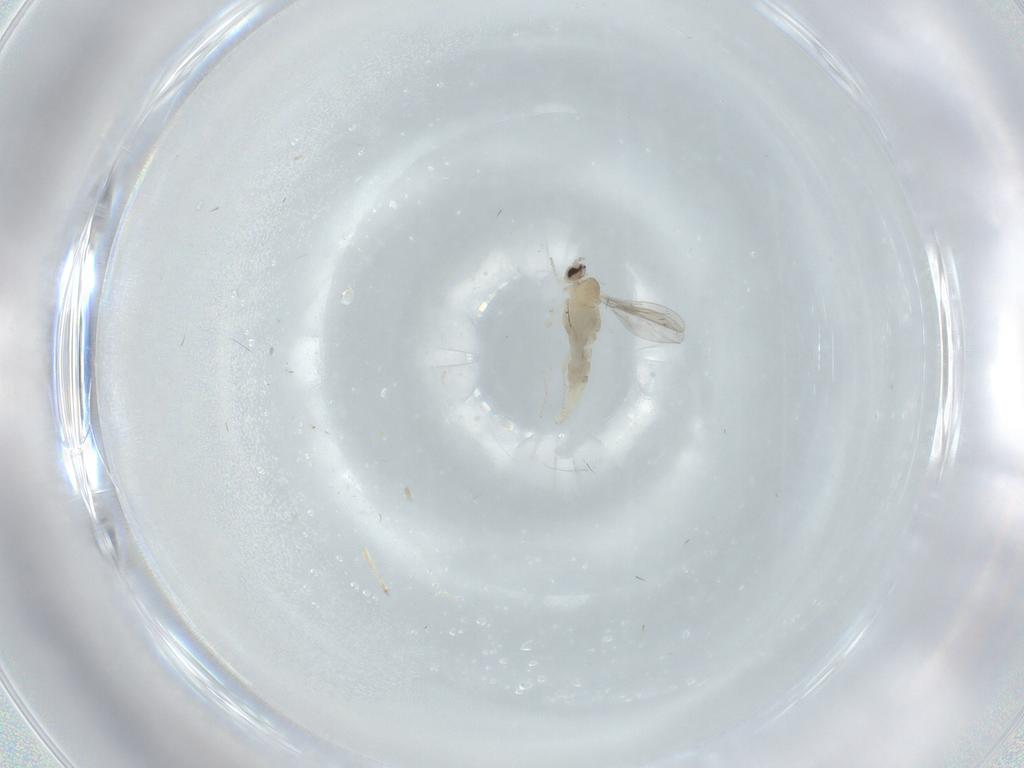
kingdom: Animalia
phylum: Arthropoda
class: Insecta
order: Diptera
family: Cecidomyiidae
